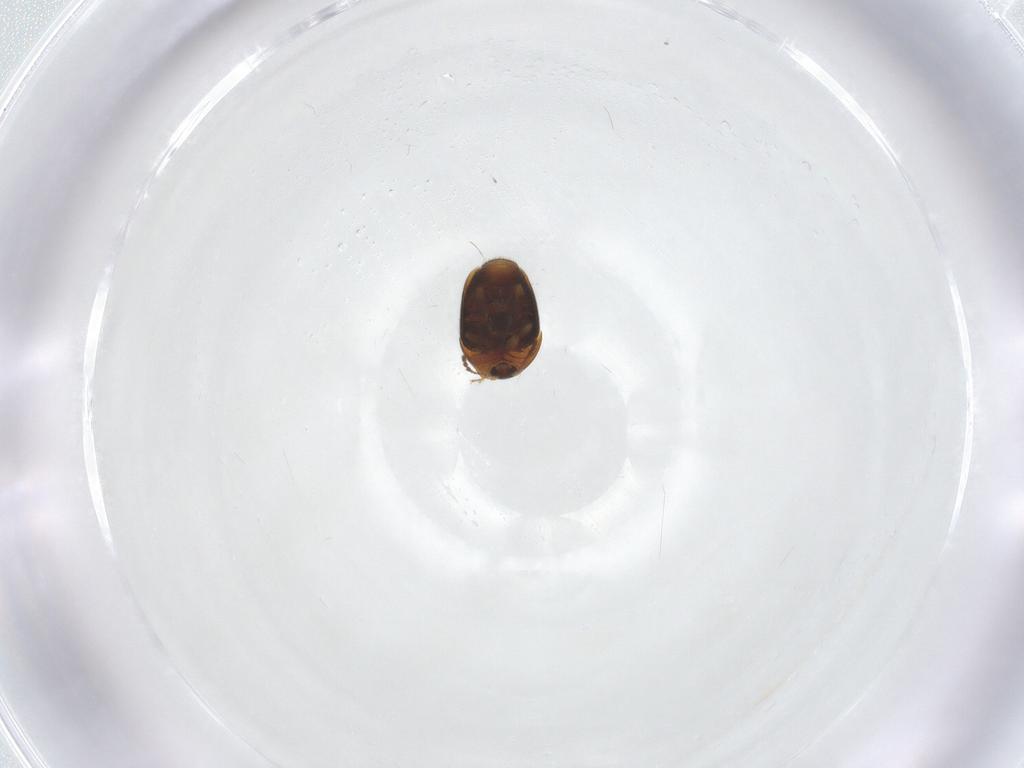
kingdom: Animalia
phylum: Arthropoda
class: Insecta
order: Coleoptera
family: Corylophidae
